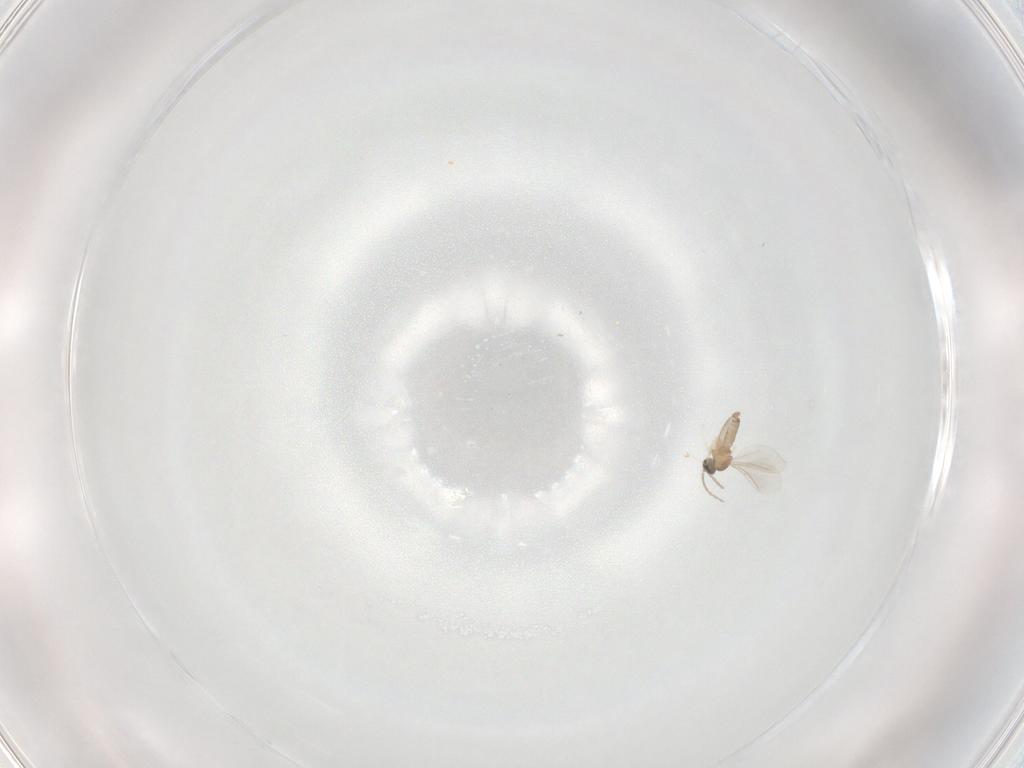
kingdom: Animalia
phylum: Arthropoda
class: Insecta
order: Diptera
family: Cecidomyiidae
